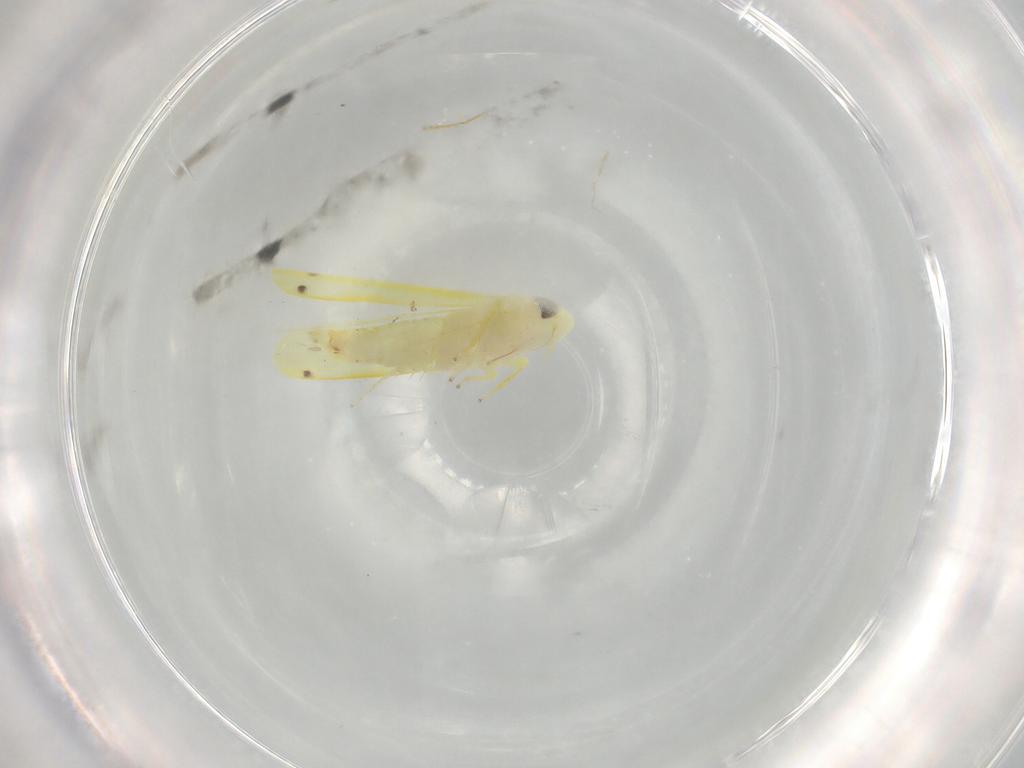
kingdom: Animalia
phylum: Arthropoda
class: Insecta
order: Hemiptera
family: Cicadellidae
